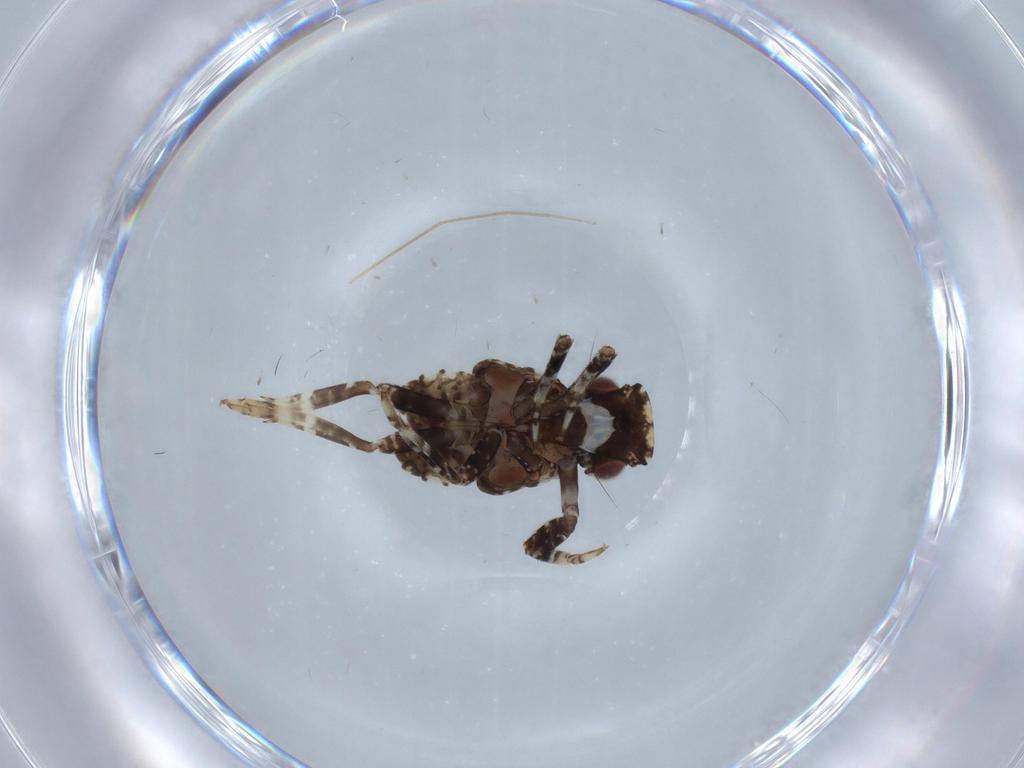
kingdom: Animalia
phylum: Arthropoda
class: Insecta
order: Hemiptera
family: Fulgoridae
